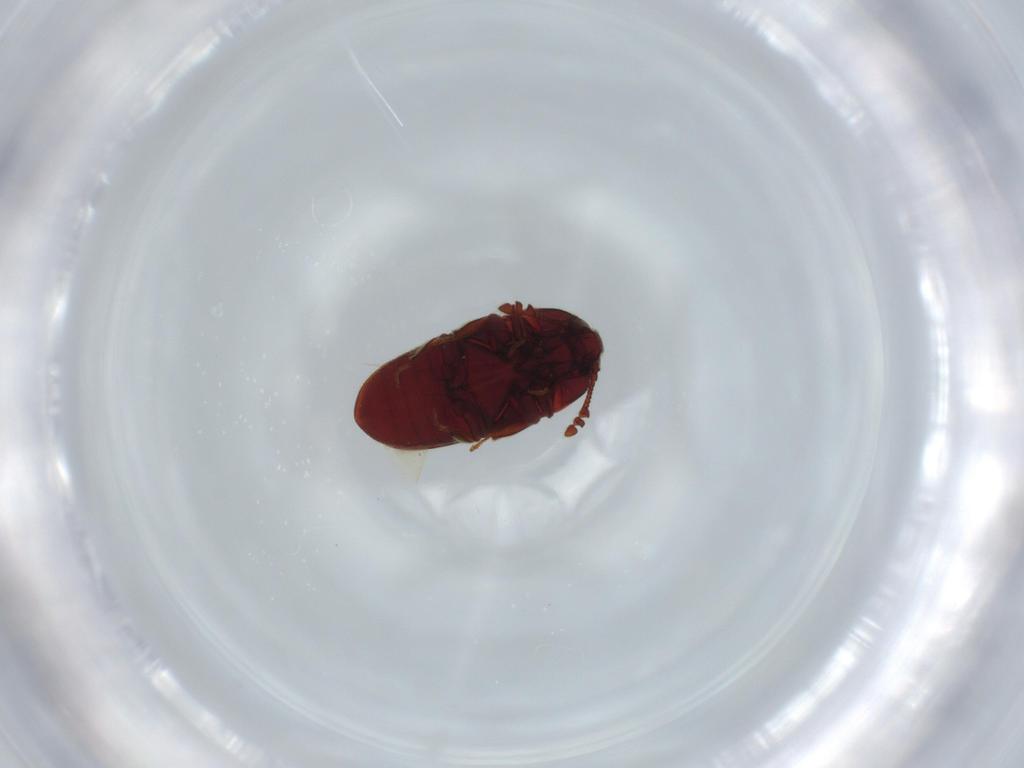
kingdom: Animalia
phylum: Arthropoda
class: Insecta
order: Coleoptera
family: Throscidae
